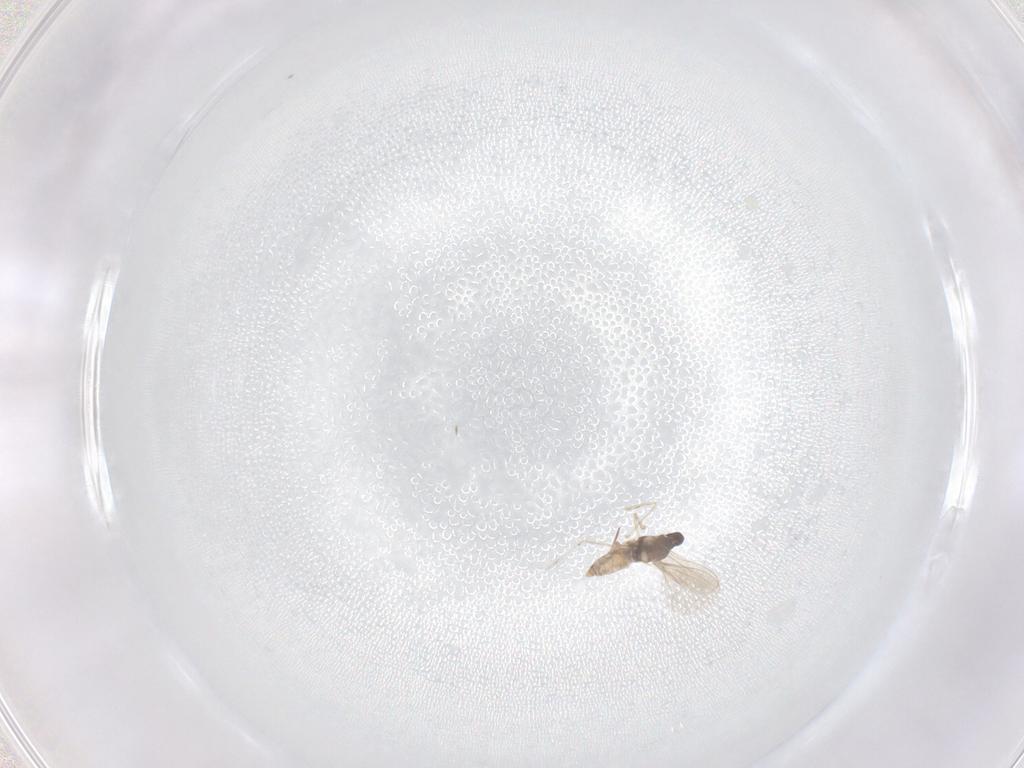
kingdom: Animalia
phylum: Arthropoda
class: Insecta
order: Diptera
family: Cecidomyiidae
